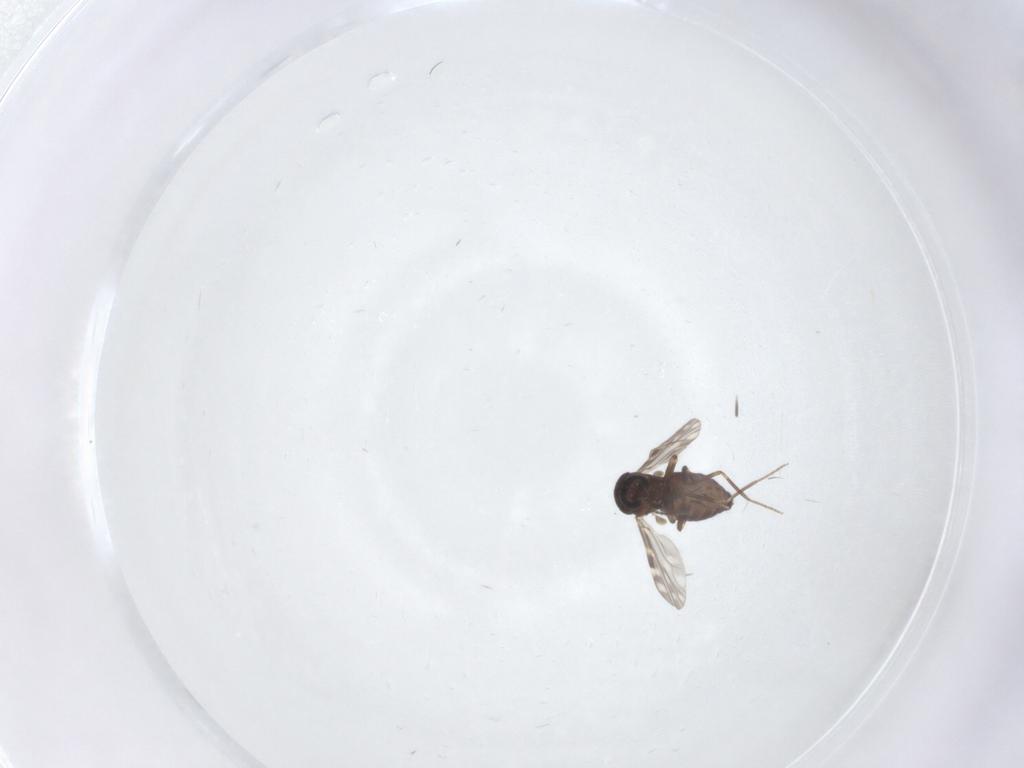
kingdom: Animalia
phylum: Arthropoda
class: Insecta
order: Diptera
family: Ceratopogonidae
